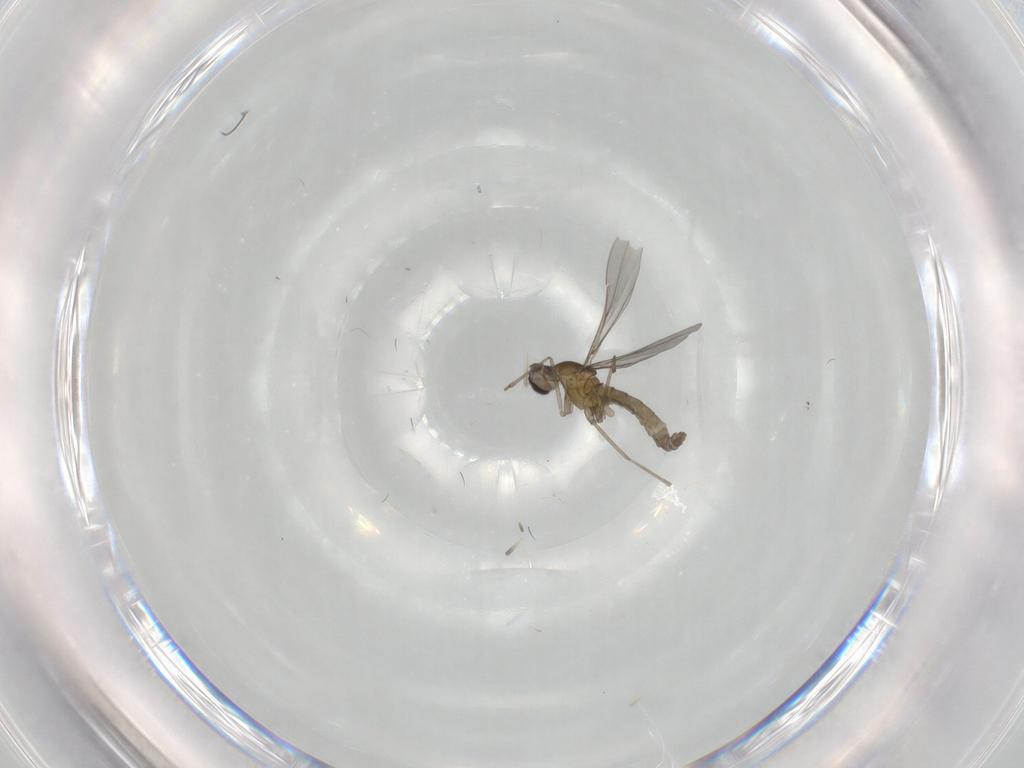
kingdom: Animalia
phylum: Arthropoda
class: Insecta
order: Diptera
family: Cecidomyiidae
